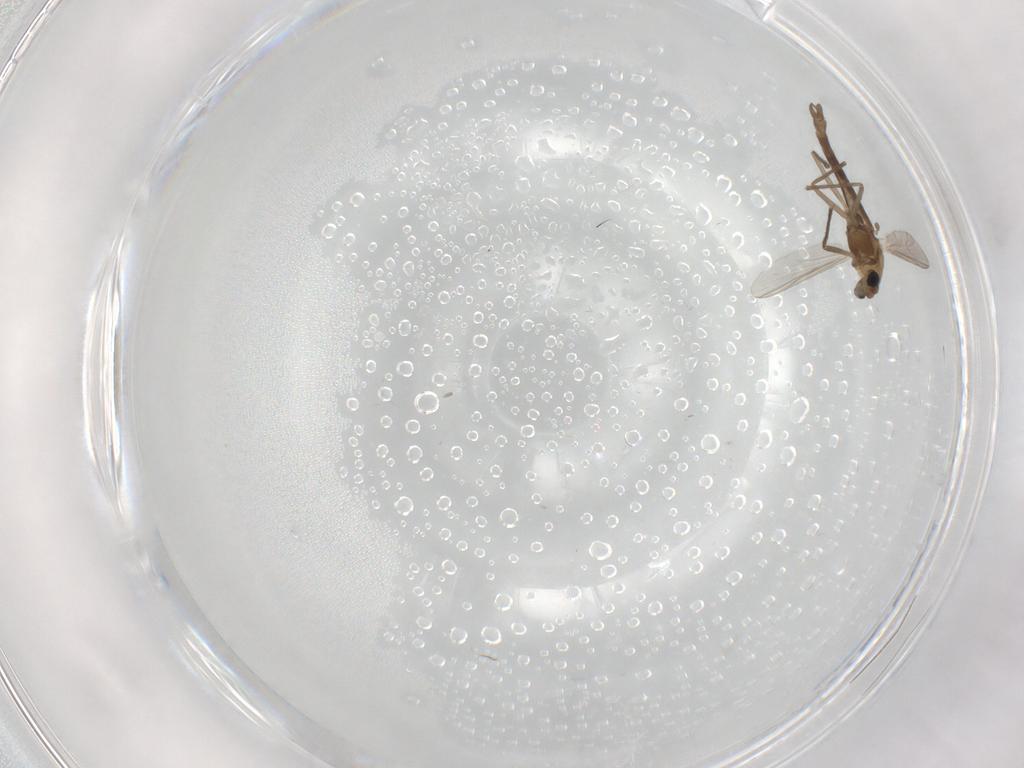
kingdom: Animalia
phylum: Arthropoda
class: Insecta
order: Diptera
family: Chironomidae
